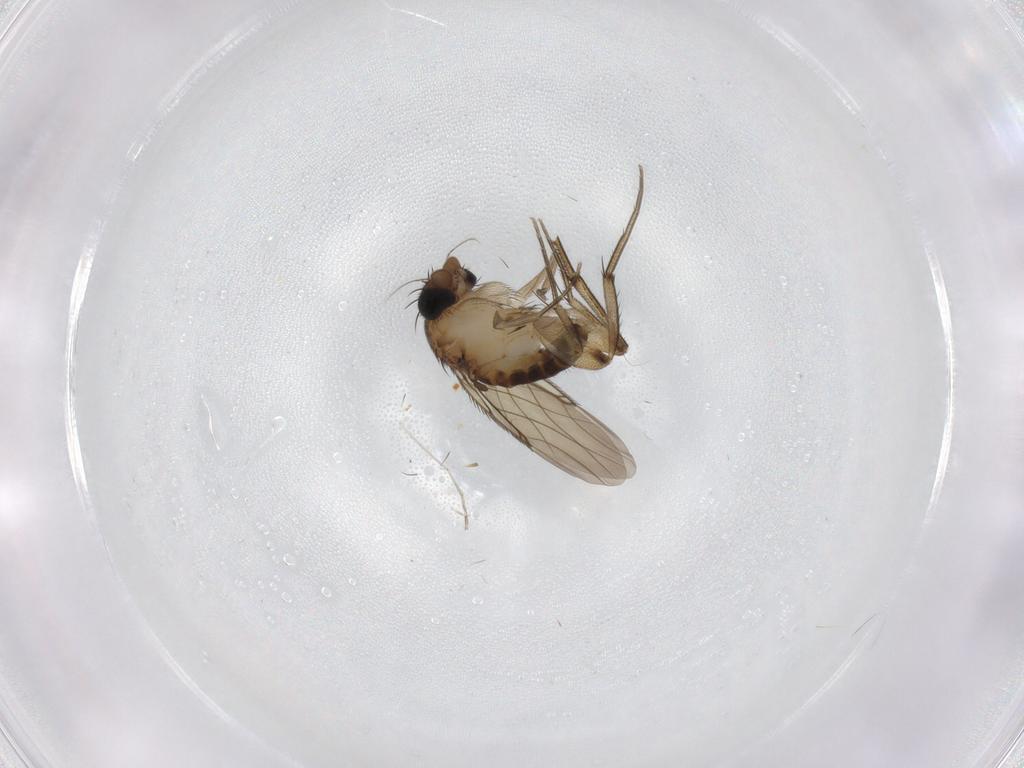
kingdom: Animalia
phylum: Arthropoda
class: Insecta
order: Diptera
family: Phoridae
